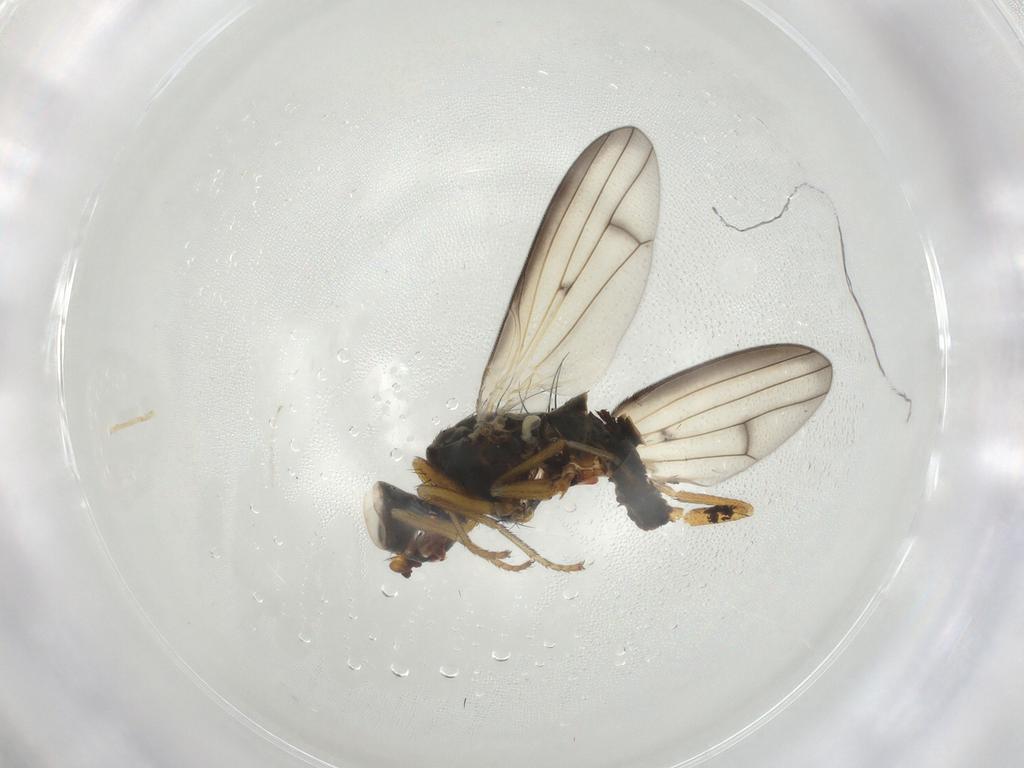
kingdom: Animalia
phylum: Arthropoda
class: Insecta
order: Diptera
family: Chamaemyiidae
